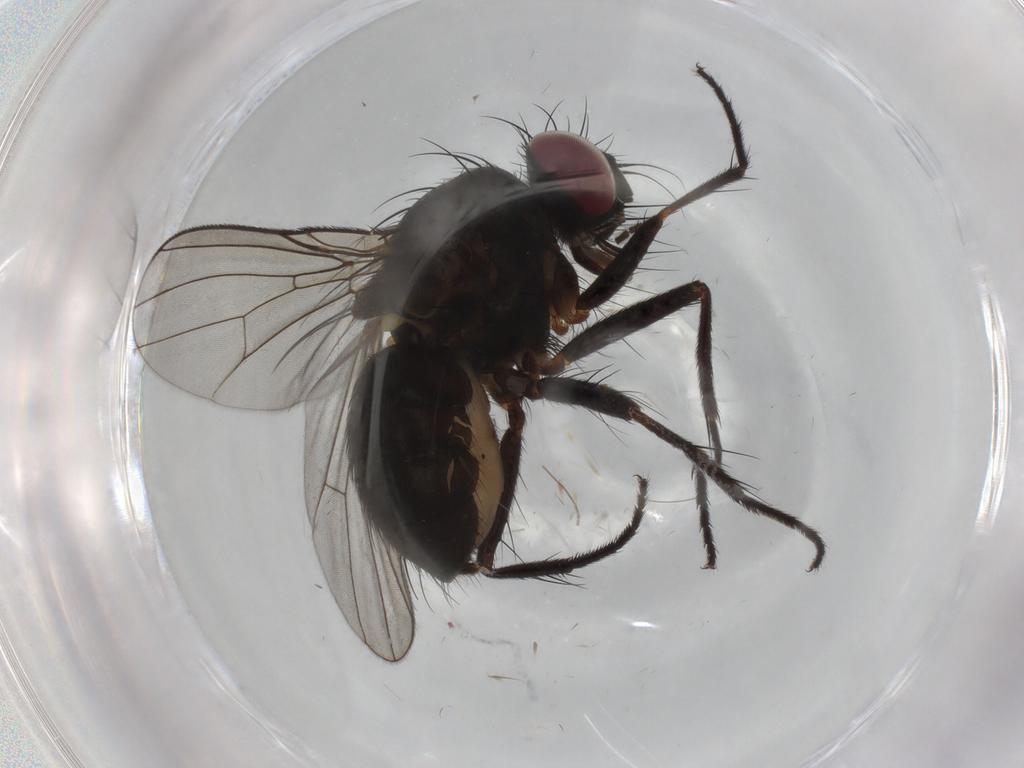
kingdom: Animalia
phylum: Arthropoda
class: Insecta
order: Diptera
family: Muscidae
